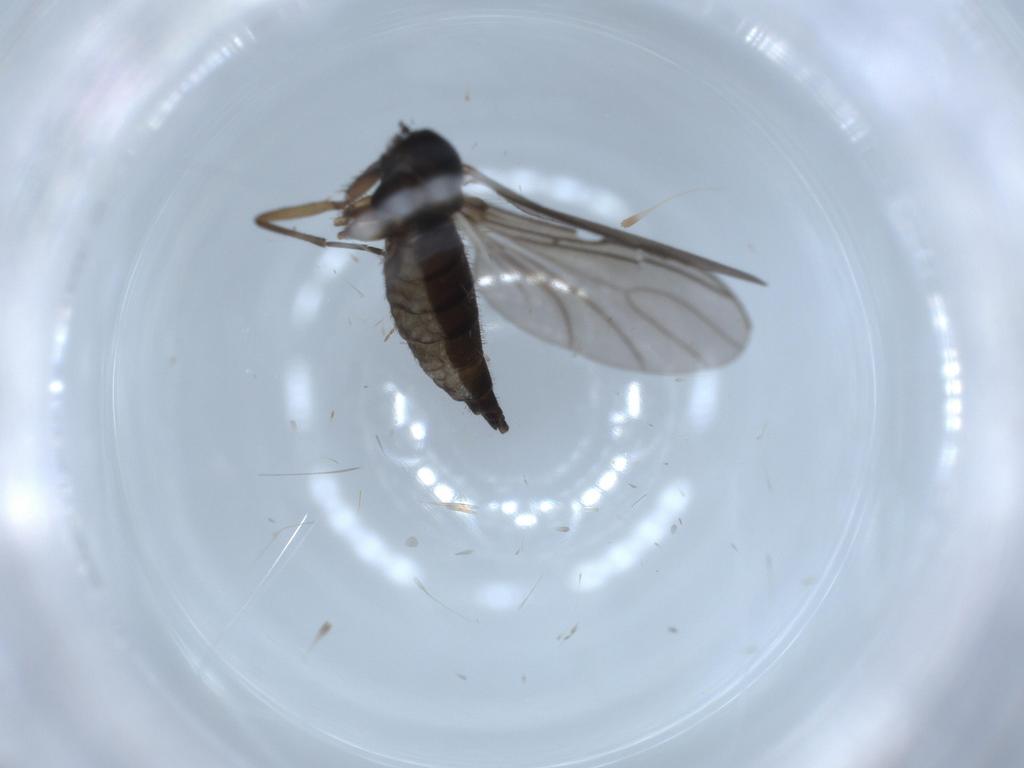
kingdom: Animalia
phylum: Arthropoda
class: Insecta
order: Diptera
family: Sciaridae
